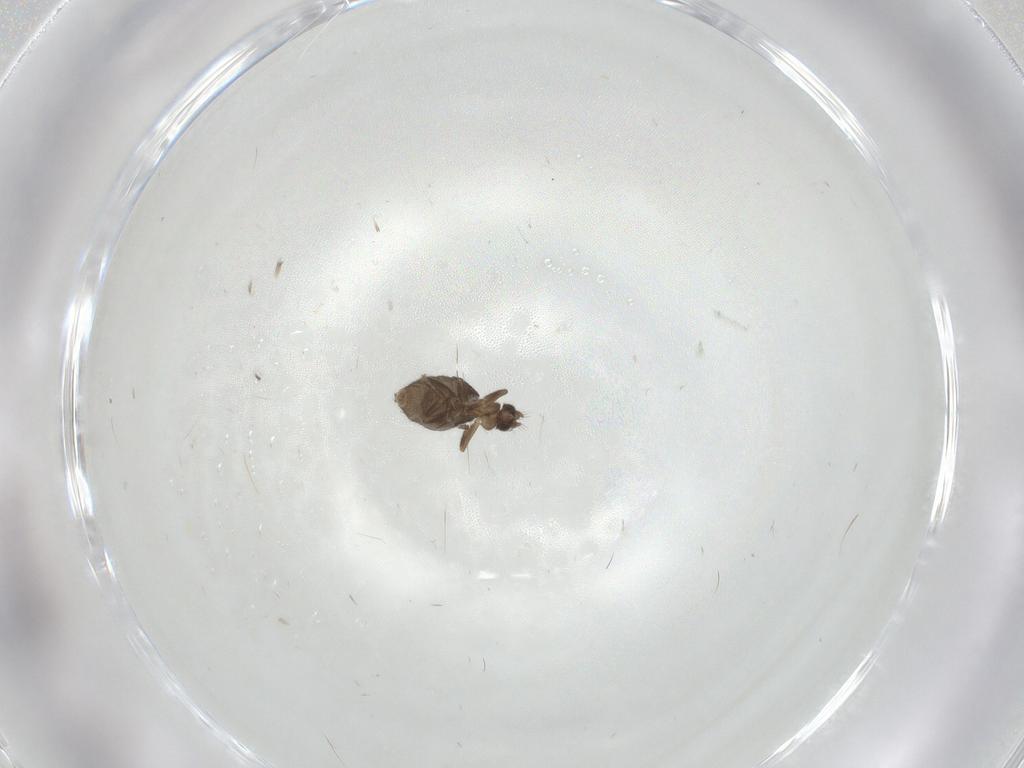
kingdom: Animalia
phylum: Arthropoda
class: Insecta
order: Diptera
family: Phoridae
